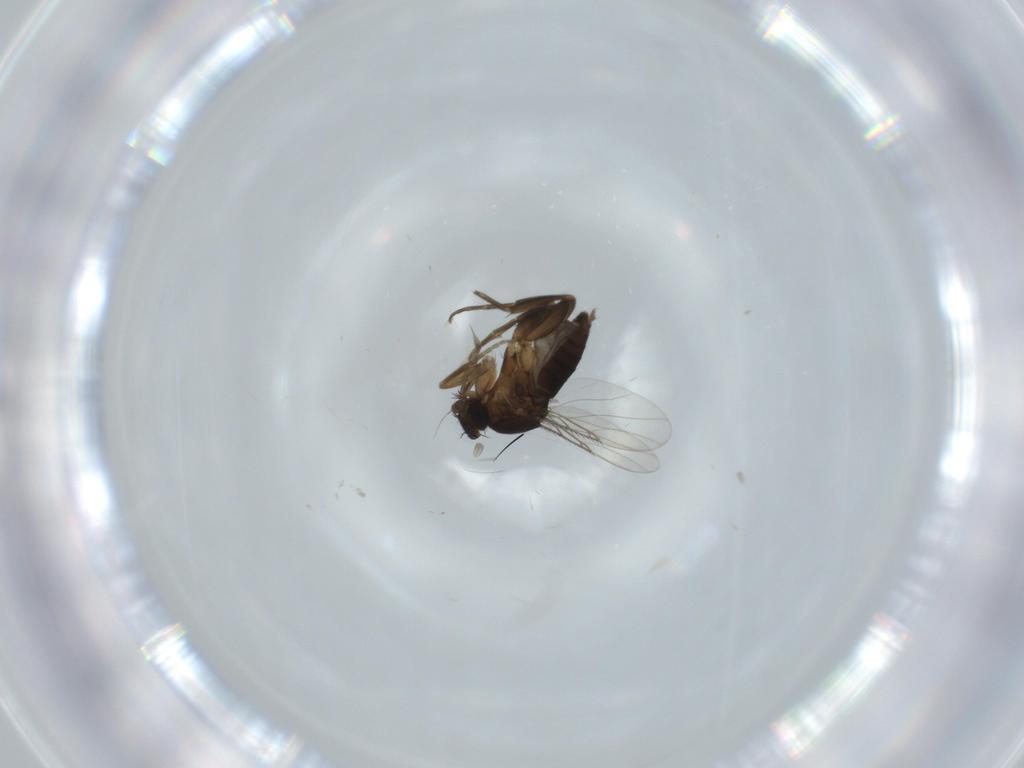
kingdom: Animalia
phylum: Arthropoda
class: Insecta
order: Diptera
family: Phoridae
